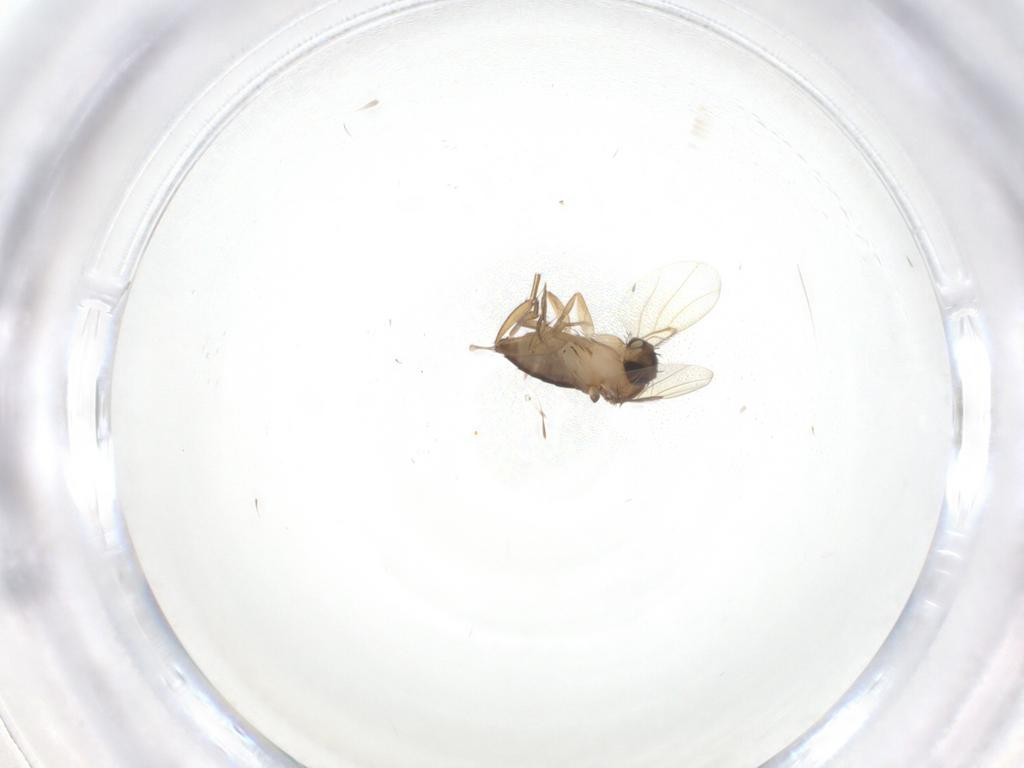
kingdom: Animalia
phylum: Arthropoda
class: Insecta
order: Diptera
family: Phoridae
